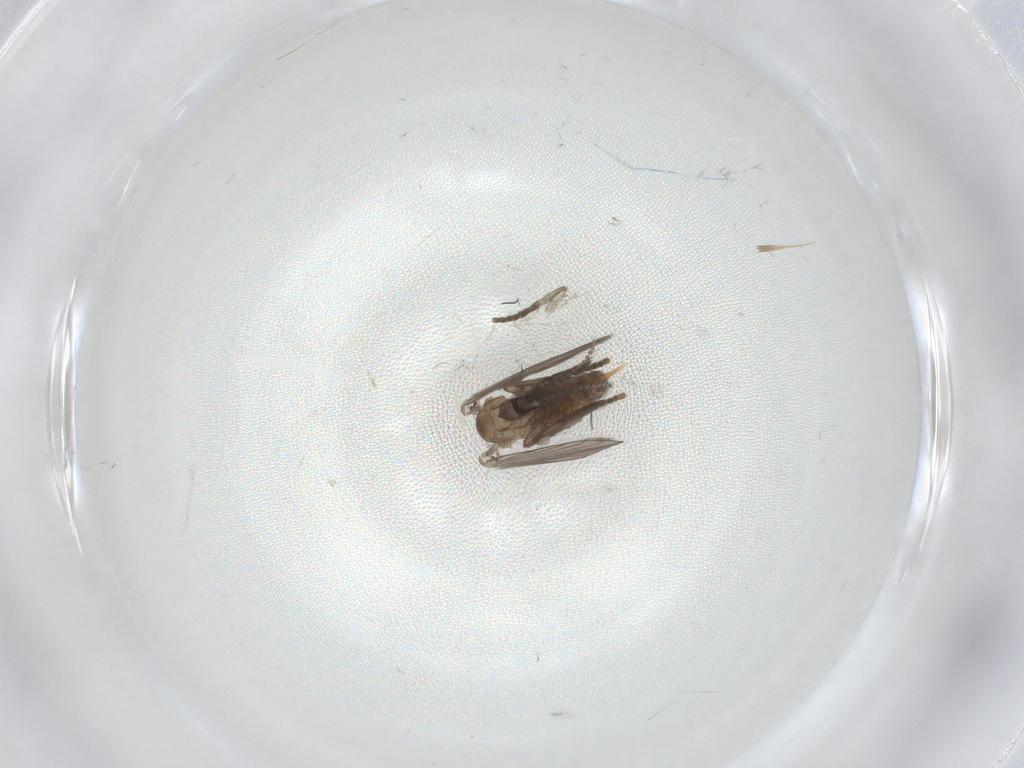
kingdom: Animalia
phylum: Arthropoda
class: Insecta
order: Diptera
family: Psychodidae
